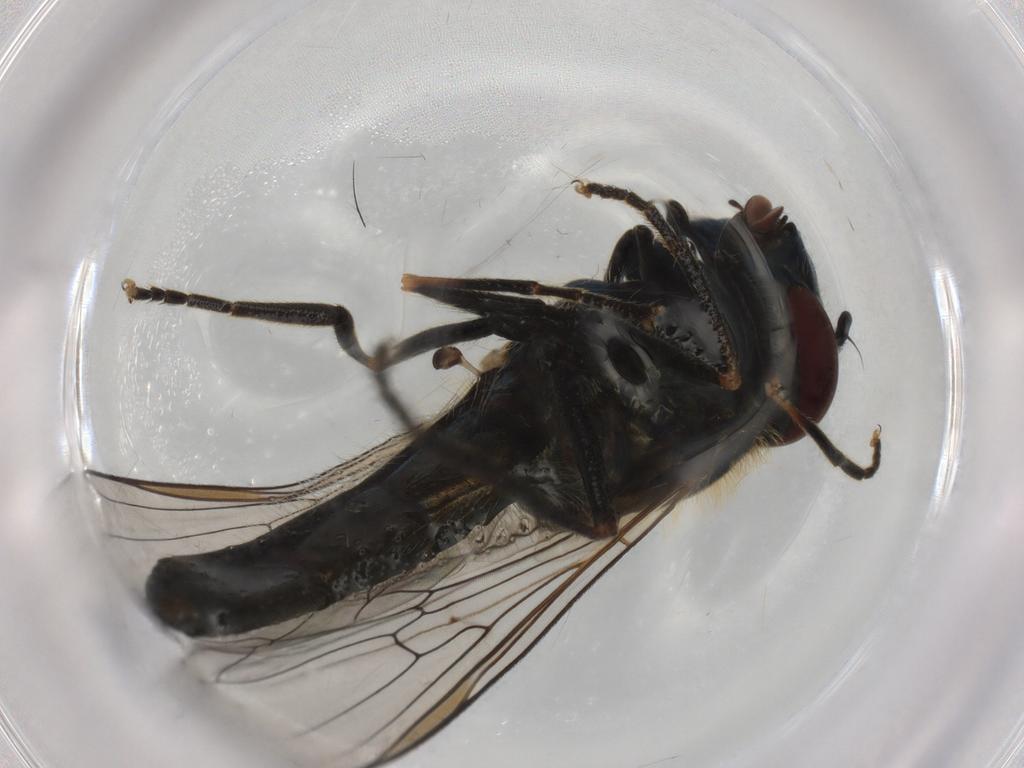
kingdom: Animalia
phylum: Arthropoda
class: Insecta
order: Diptera
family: Syrphidae
